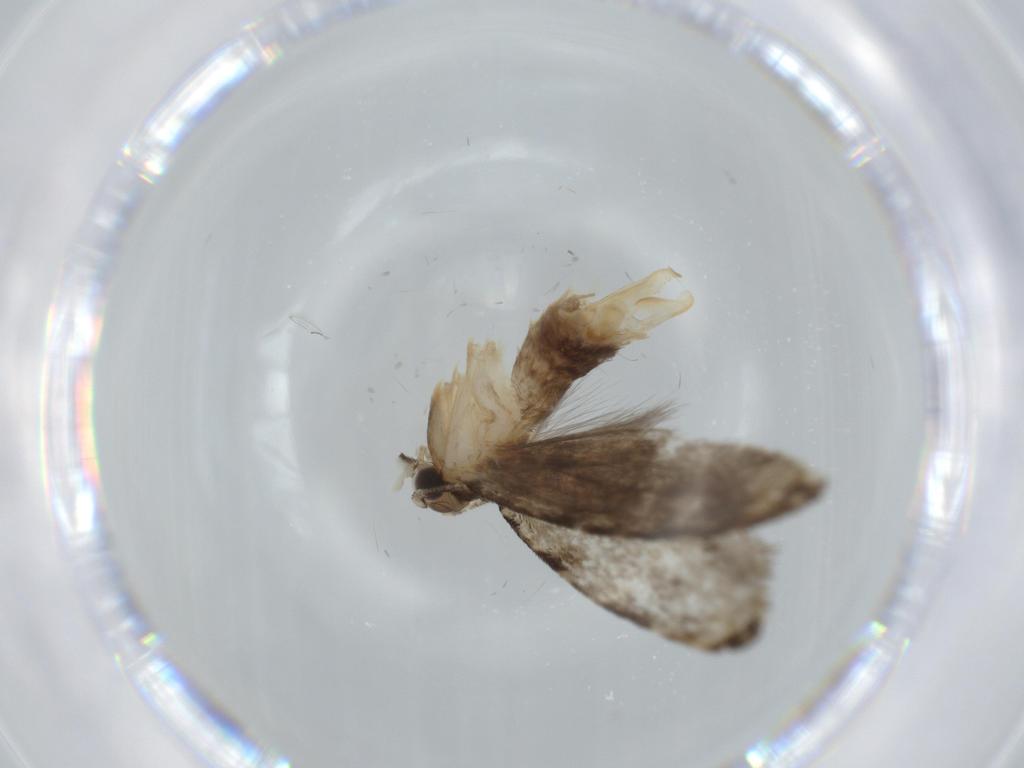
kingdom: Animalia
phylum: Arthropoda
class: Insecta
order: Lepidoptera
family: Tineidae
